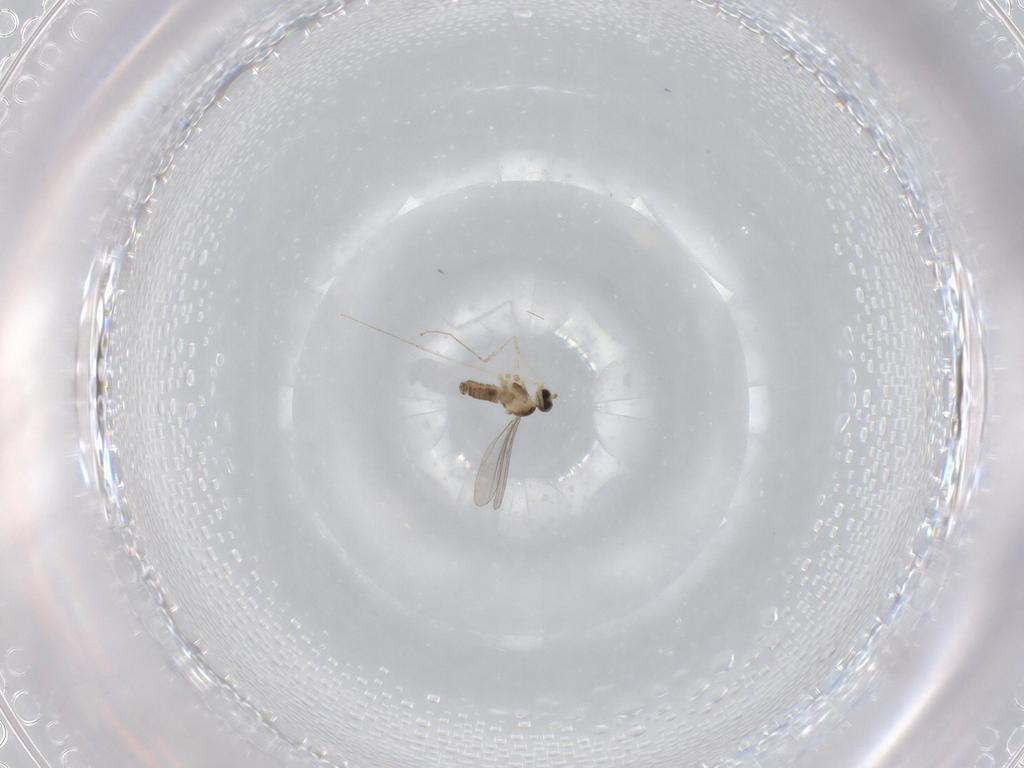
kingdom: Animalia
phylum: Arthropoda
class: Insecta
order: Diptera
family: Cecidomyiidae
